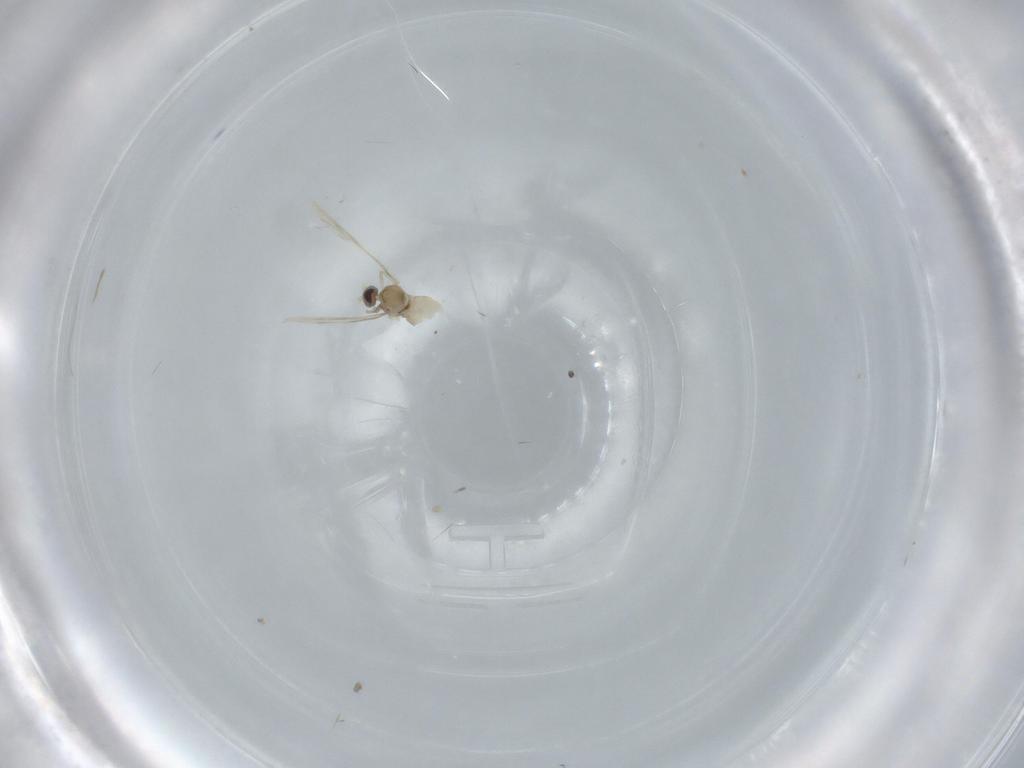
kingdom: Animalia
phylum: Arthropoda
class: Insecta
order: Diptera
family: Cecidomyiidae
